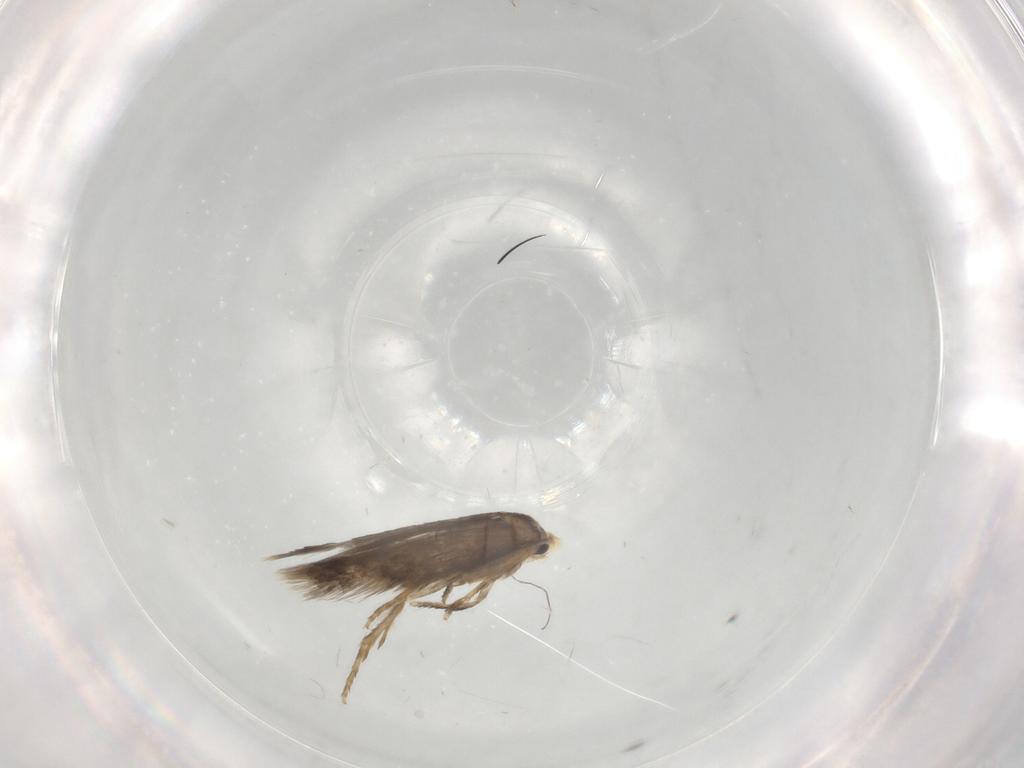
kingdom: Animalia
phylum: Arthropoda
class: Insecta
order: Lepidoptera
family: Nepticulidae
